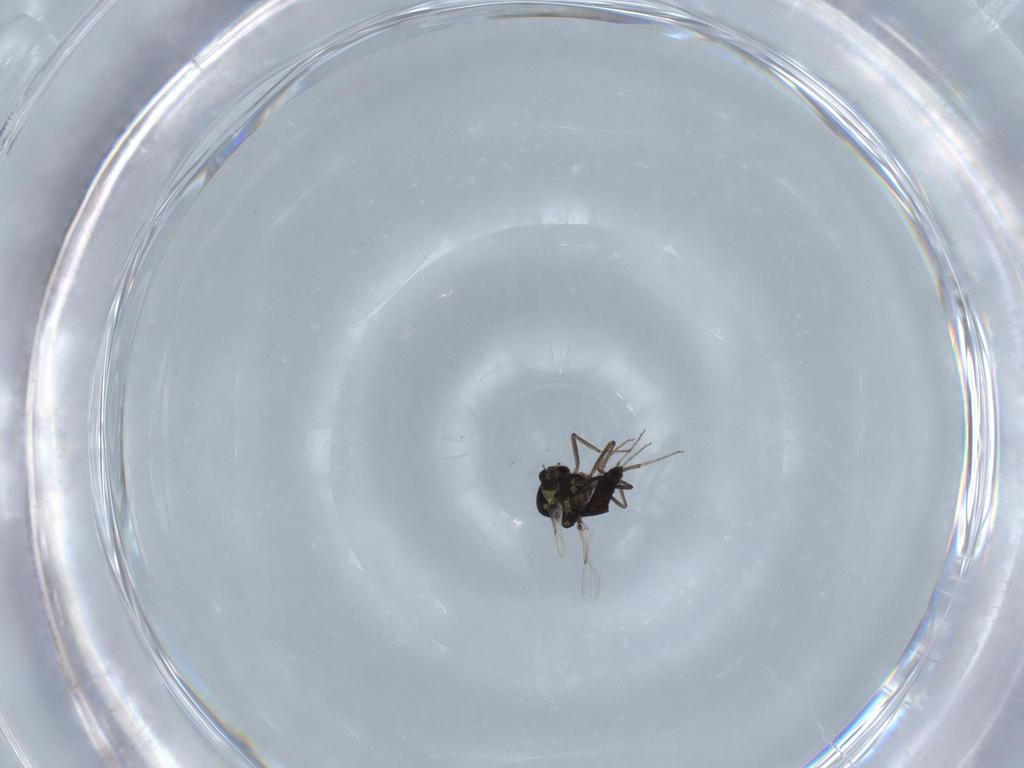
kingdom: Animalia
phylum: Arthropoda
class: Insecta
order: Diptera
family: Ceratopogonidae
